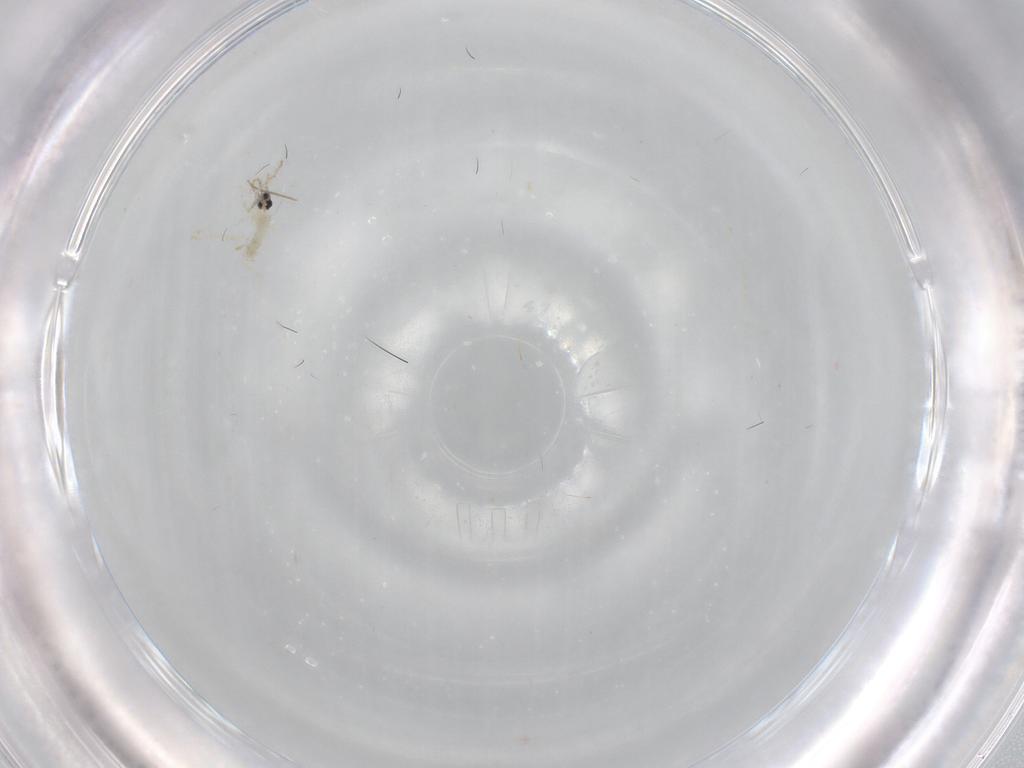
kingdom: Animalia
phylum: Arthropoda
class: Insecta
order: Diptera
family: Cecidomyiidae
